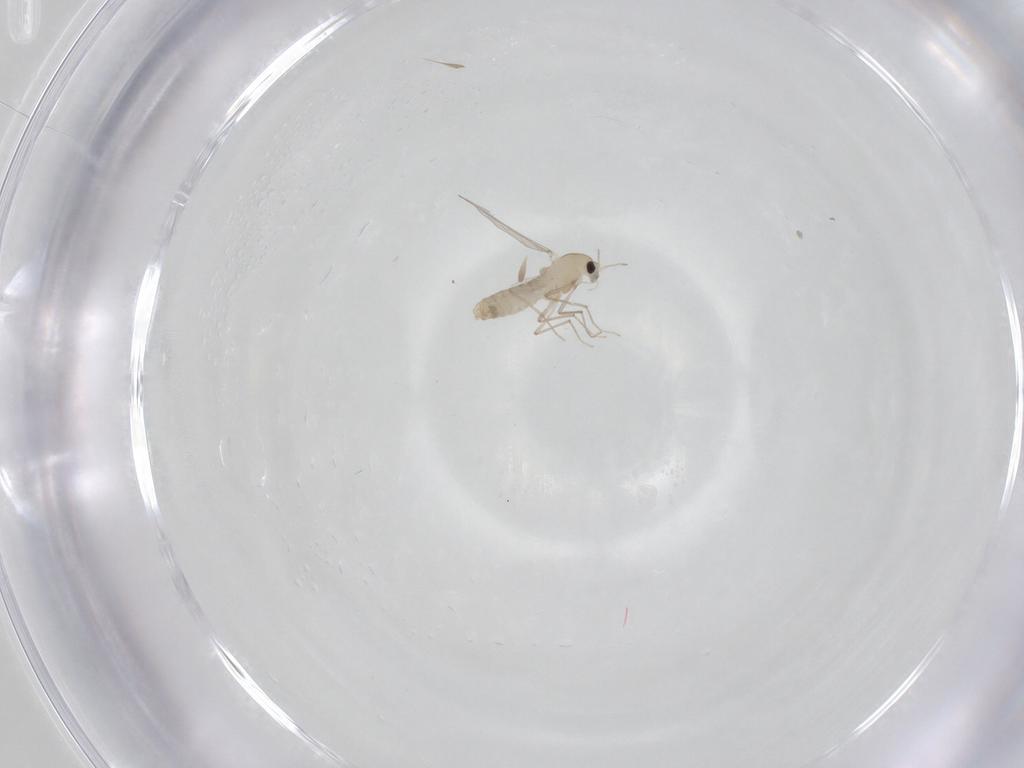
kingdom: Animalia
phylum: Arthropoda
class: Insecta
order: Diptera
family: Chironomidae
